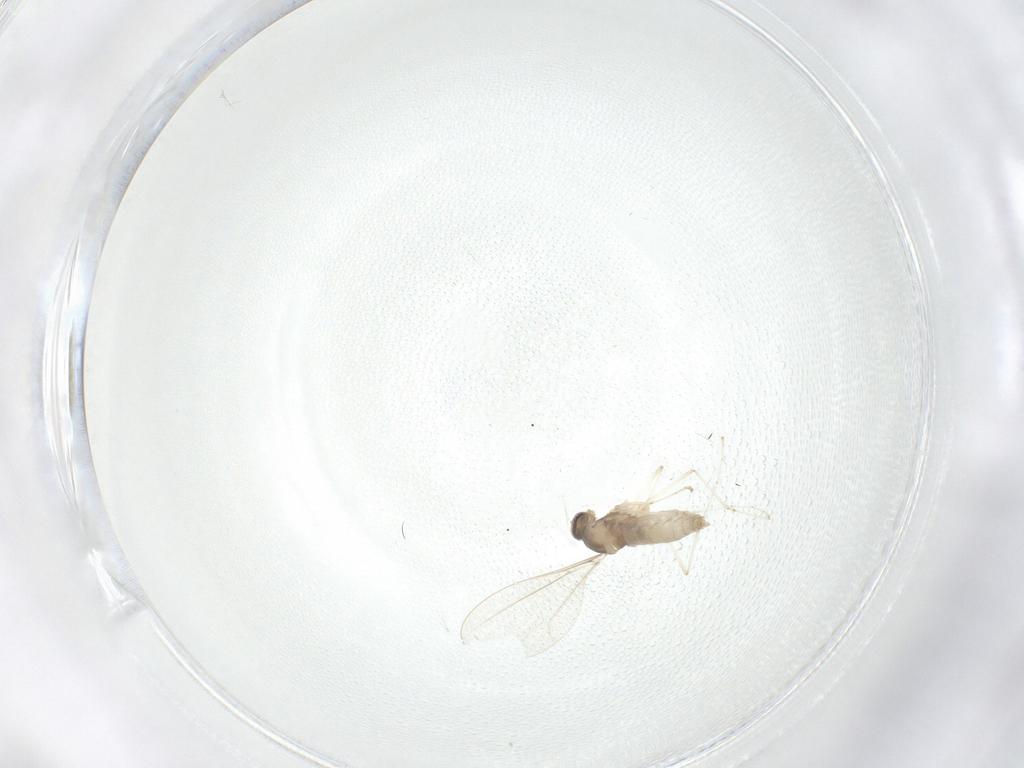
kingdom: Animalia
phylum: Arthropoda
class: Insecta
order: Diptera
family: Cecidomyiidae
